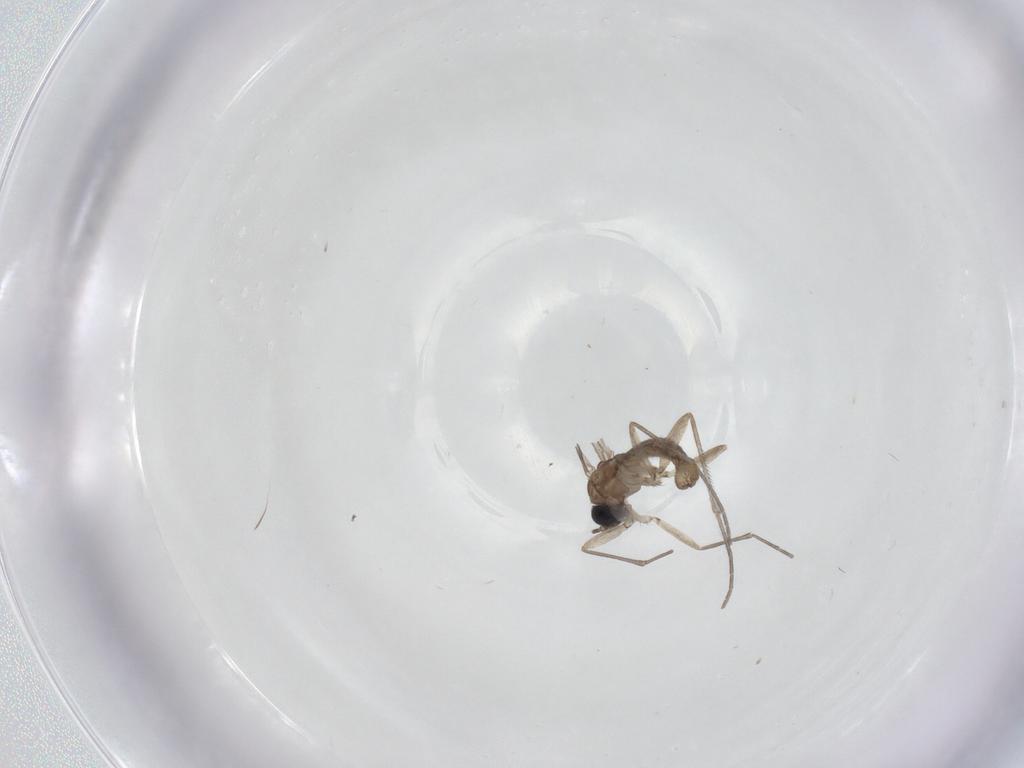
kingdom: Animalia
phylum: Arthropoda
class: Insecta
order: Diptera
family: Sciaridae
